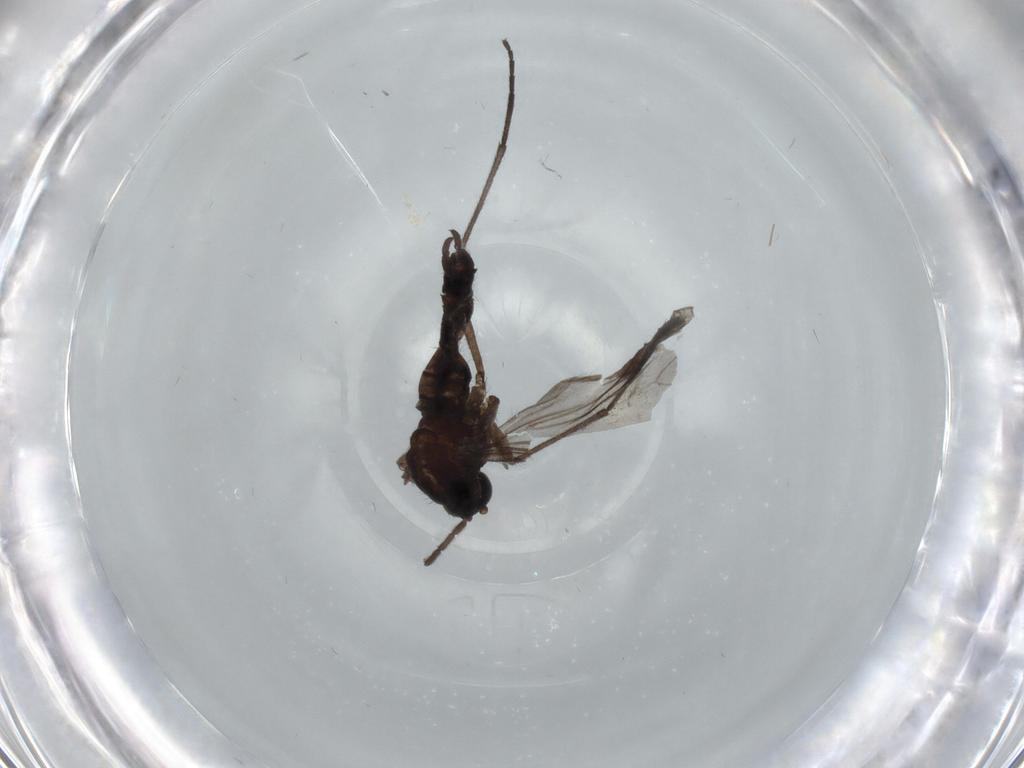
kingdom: Animalia
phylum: Arthropoda
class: Insecta
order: Diptera
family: Sciaridae
